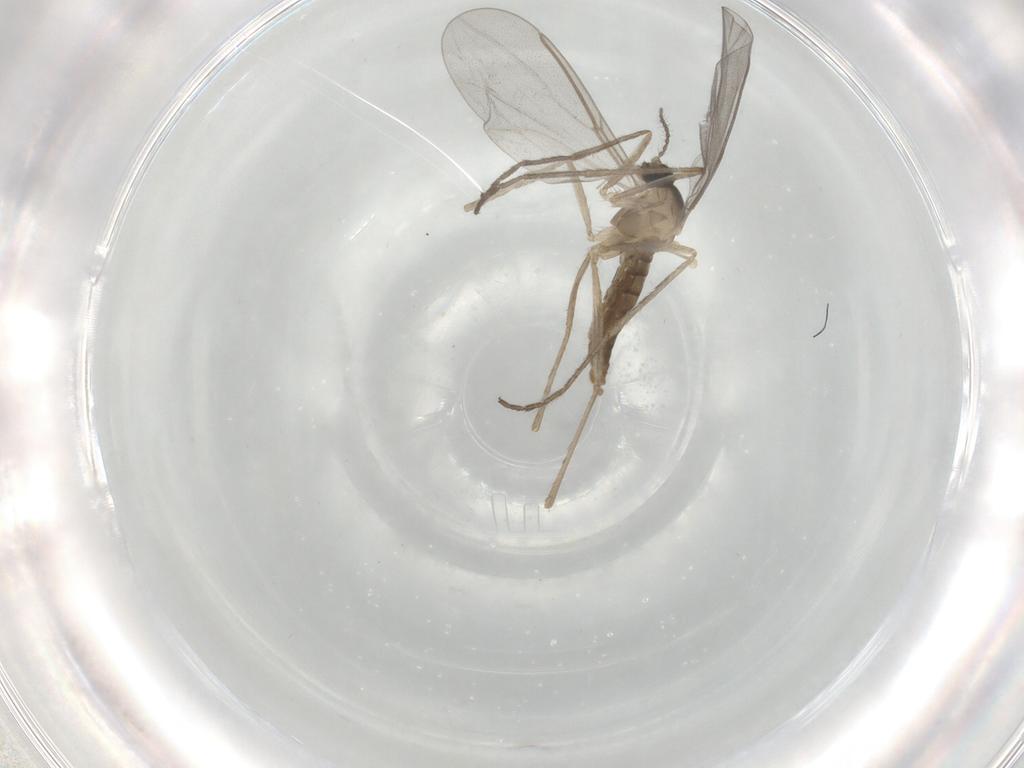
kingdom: Animalia
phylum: Arthropoda
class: Insecta
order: Diptera
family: Cecidomyiidae
